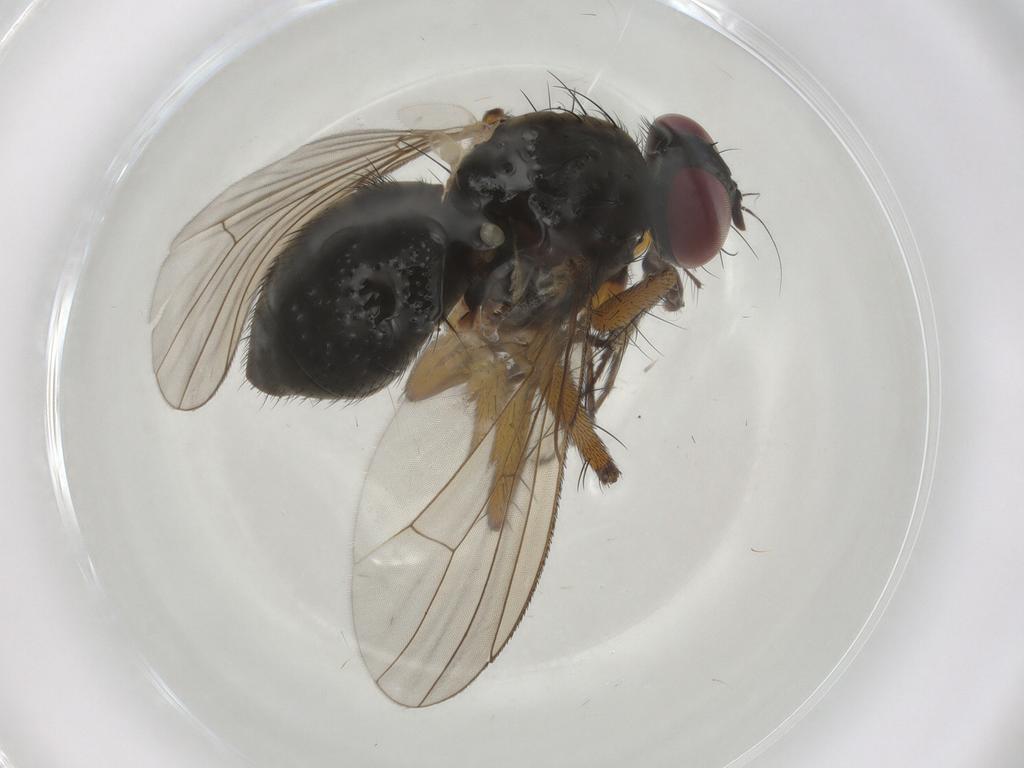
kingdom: Animalia
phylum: Arthropoda
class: Insecta
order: Diptera
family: Muscidae
